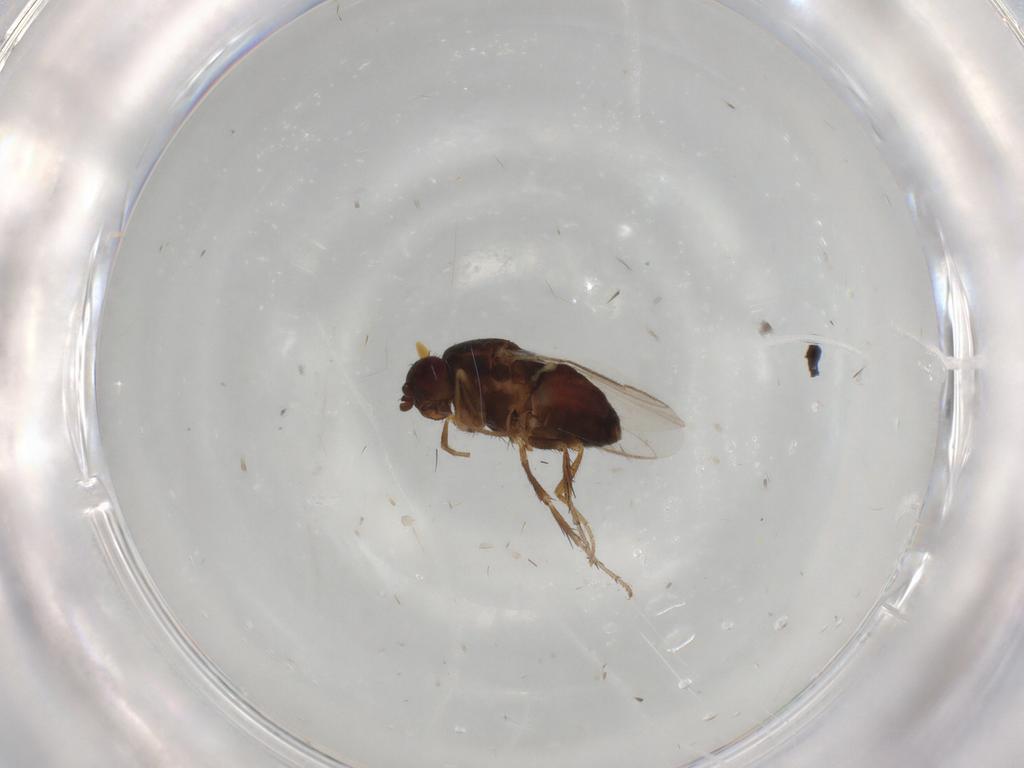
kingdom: Animalia
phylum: Arthropoda
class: Insecta
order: Diptera
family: Sphaeroceridae
